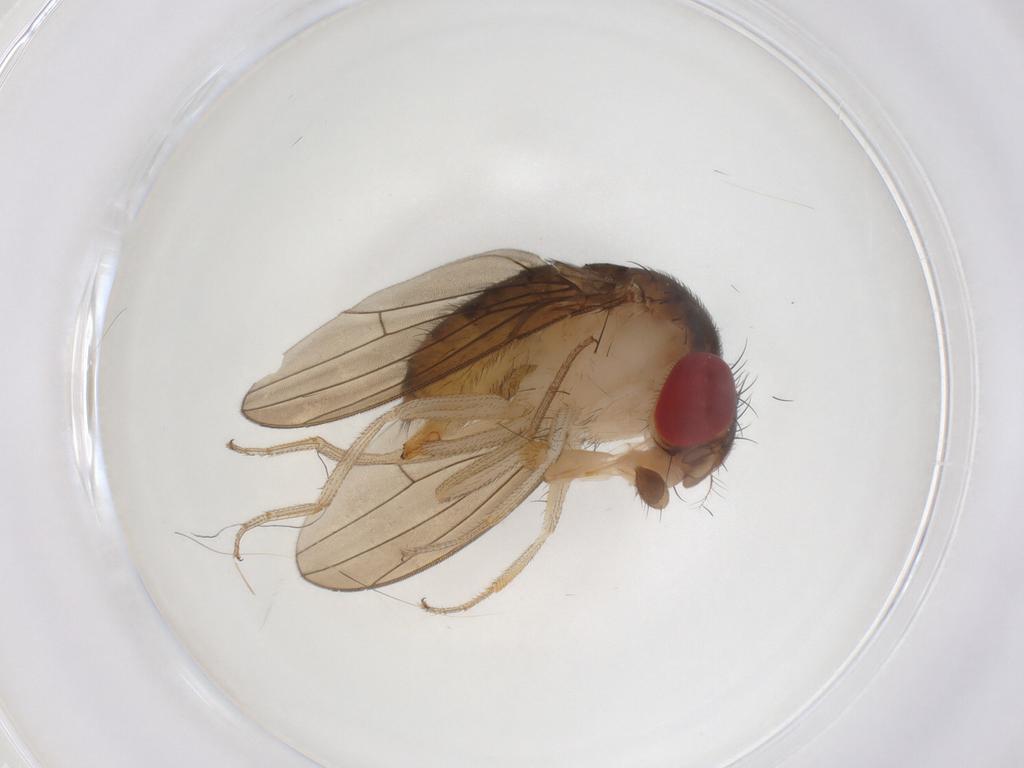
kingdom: Animalia
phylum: Arthropoda
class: Insecta
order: Diptera
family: Drosophilidae
